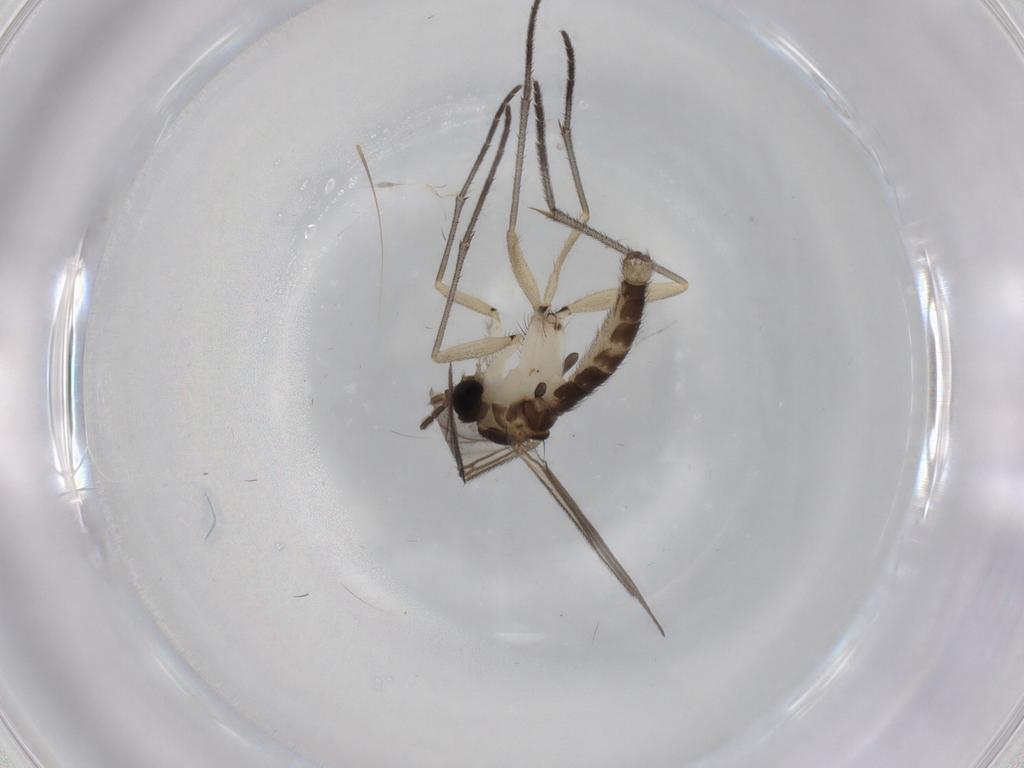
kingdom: Animalia
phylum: Arthropoda
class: Insecta
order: Diptera
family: Sciaridae
